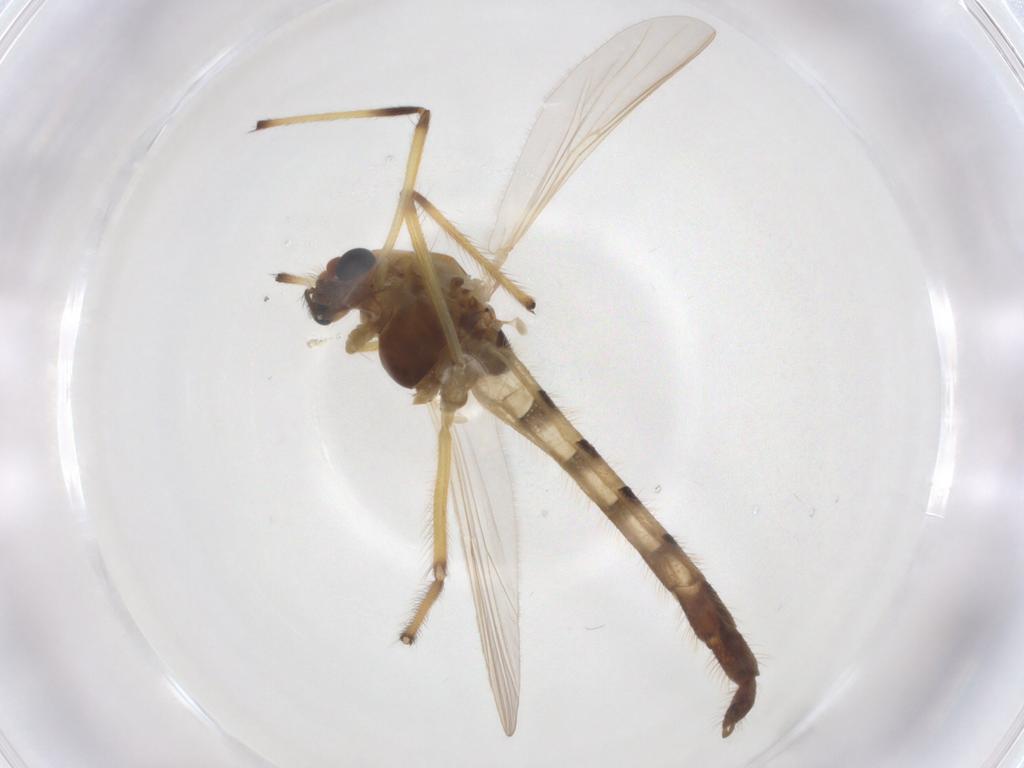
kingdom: Animalia
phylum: Arthropoda
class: Insecta
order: Diptera
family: Chironomidae
